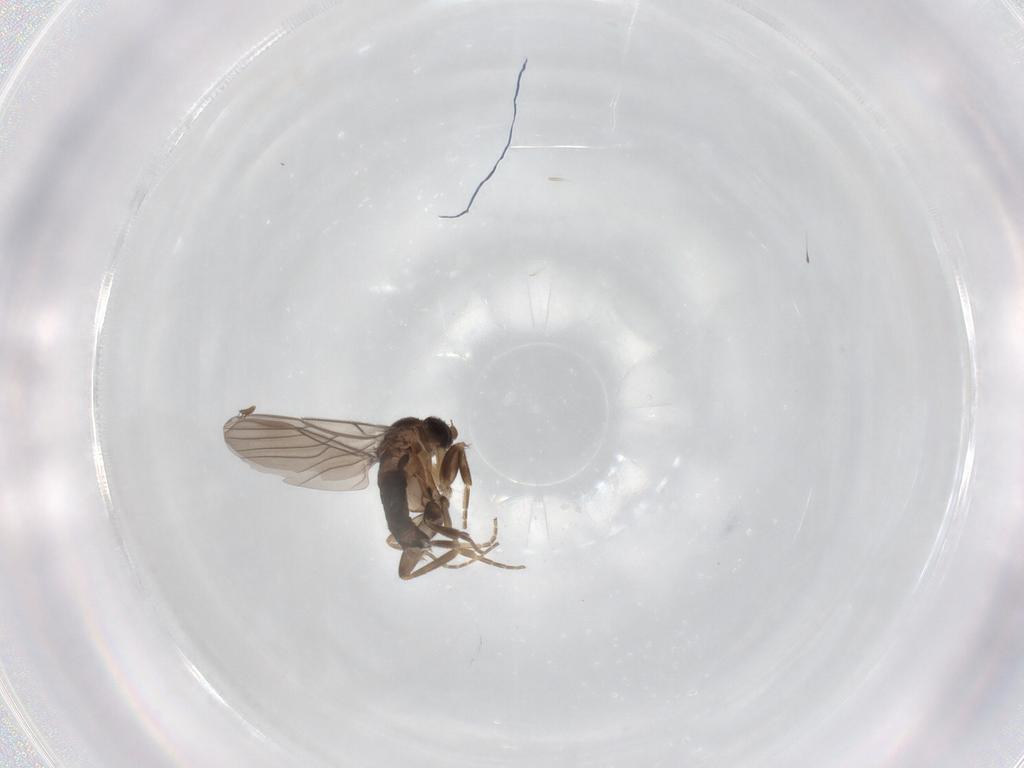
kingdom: Animalia
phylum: Arthropoda
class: Insecta
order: Diptera
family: Phoridae
